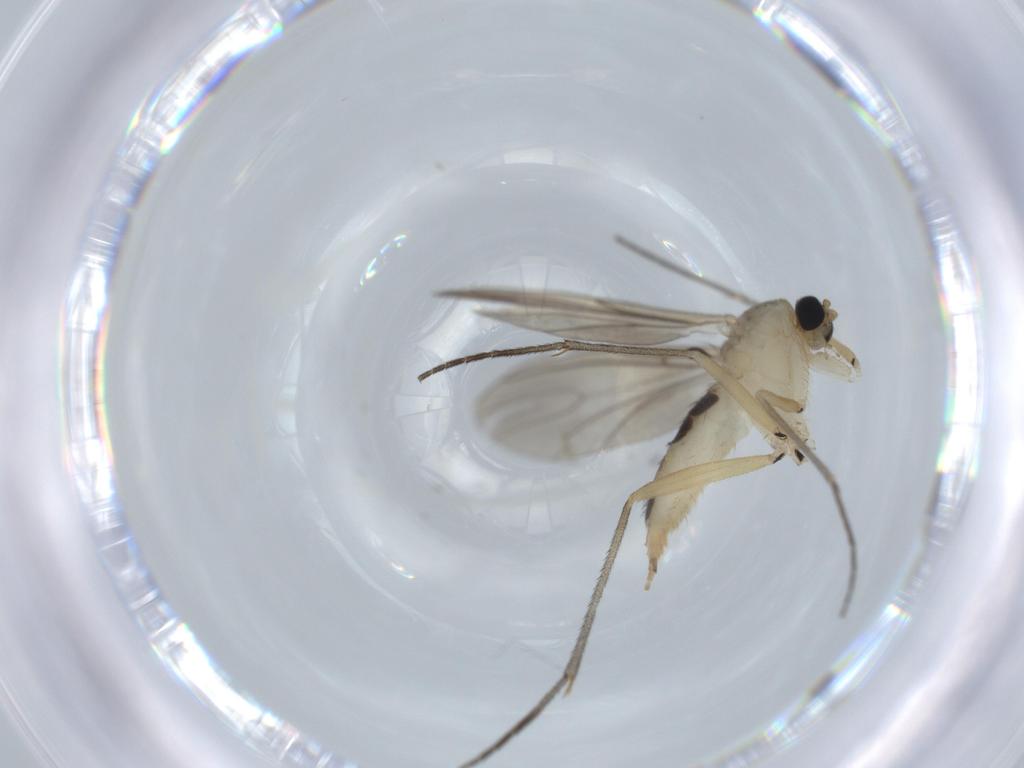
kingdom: Animalia
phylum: Arthropoda
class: Insecta
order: Diptera
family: Sciaridae
